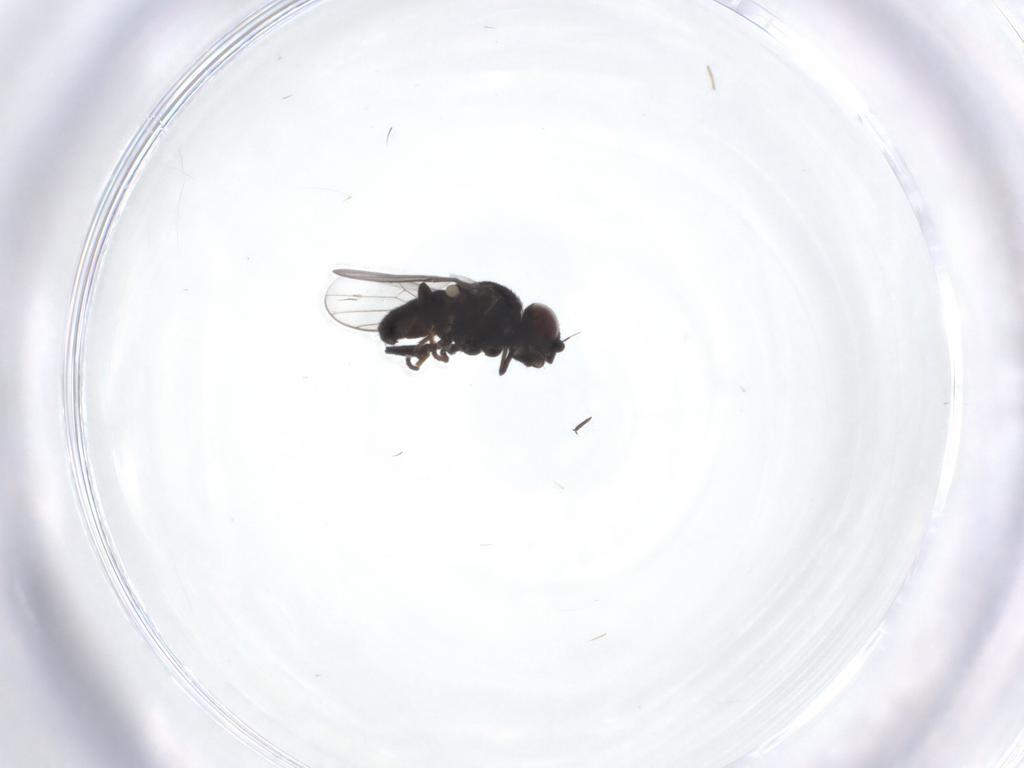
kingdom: Animalia
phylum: Arthropoda
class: Insecta
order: Diptera
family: Chloropidae
